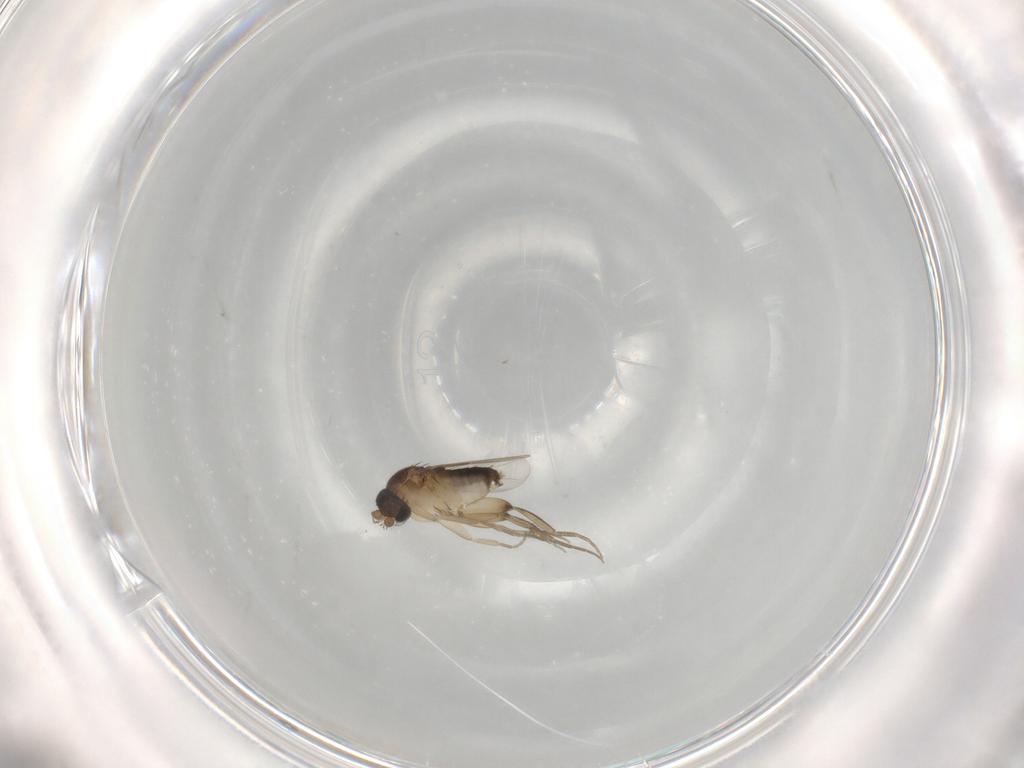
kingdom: Animalia
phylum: Arthropoda
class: Insecta
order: Diptera
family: Phoridae
